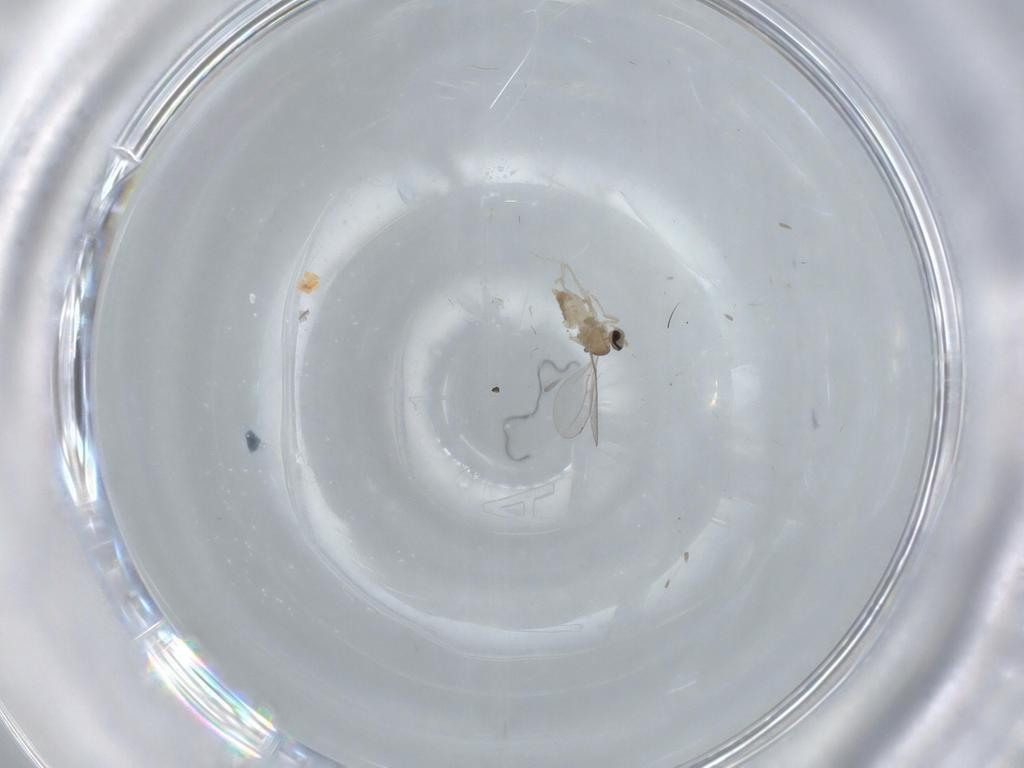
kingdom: Animalia
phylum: Arthropoda
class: Insecta
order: Diptera
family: Cecidomyiidae
